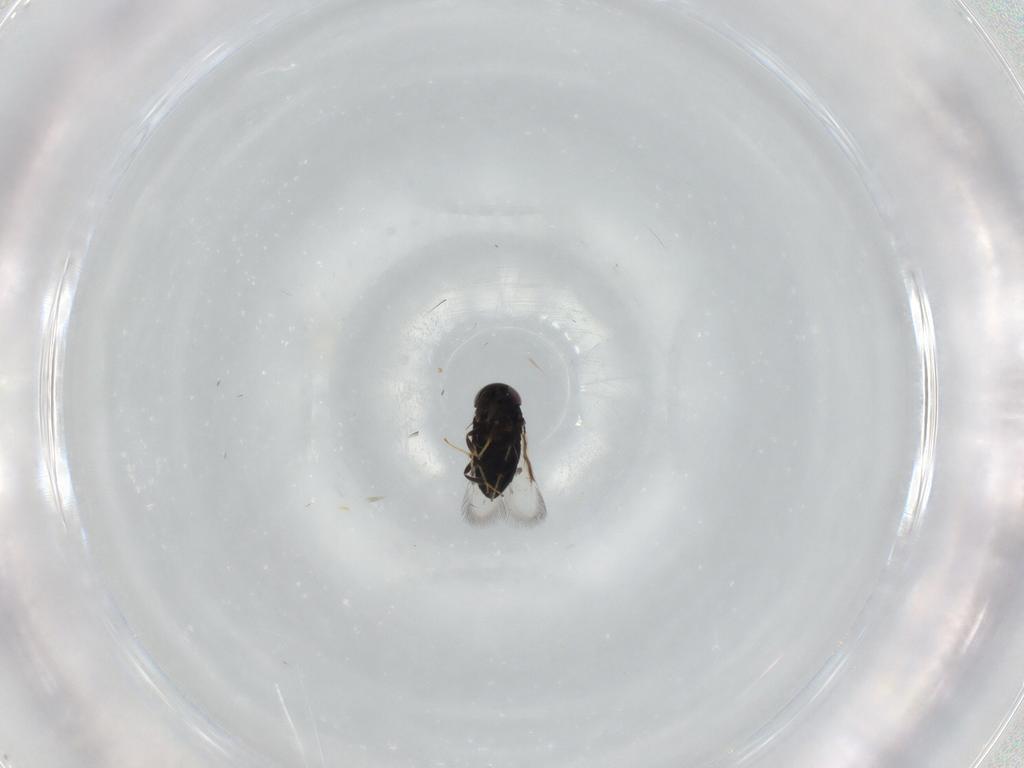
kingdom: Animalia
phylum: Arthropoda
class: Insecta
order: Hymenoptera
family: Signiphoridae
